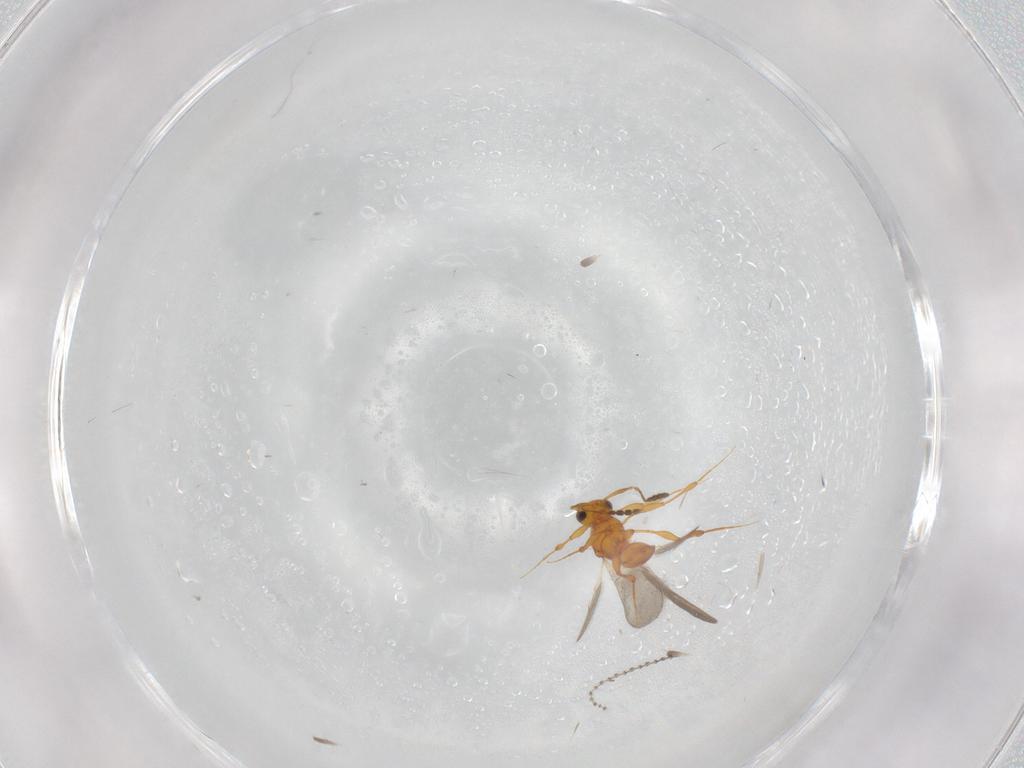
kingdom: Animalia
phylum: Arthropoda
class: Insecta
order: Hymenoptera
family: Platygastridae
